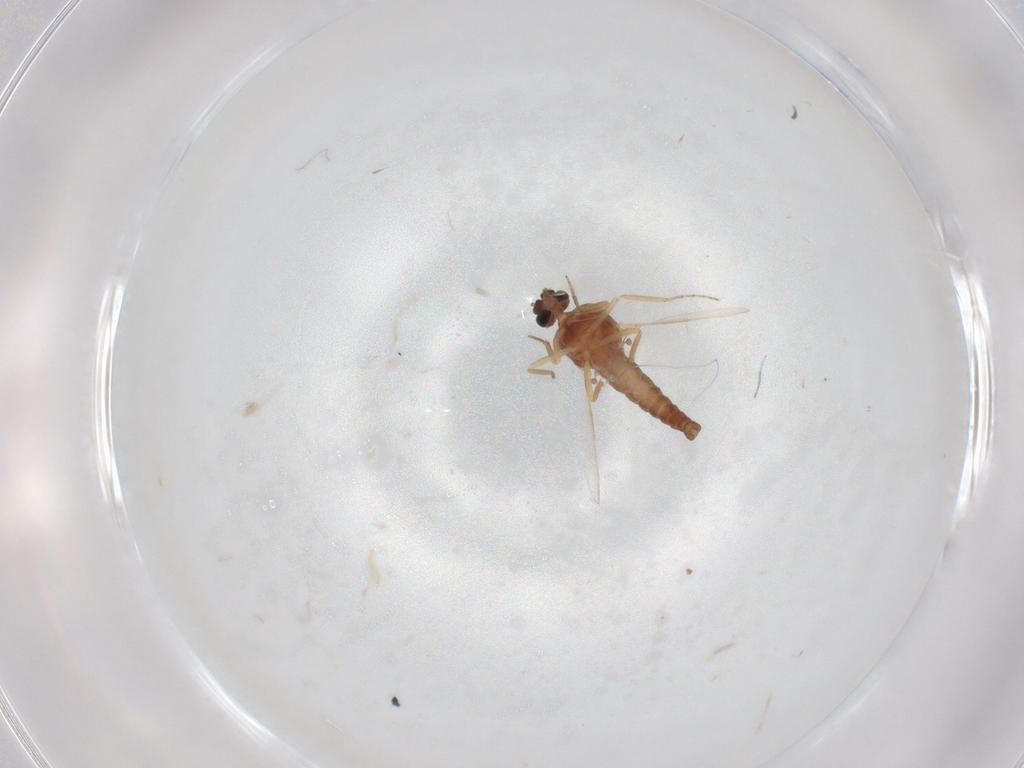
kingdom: Animalia
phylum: Arthropoda
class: Insecta
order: Diptera
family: Ceratopogonidae
